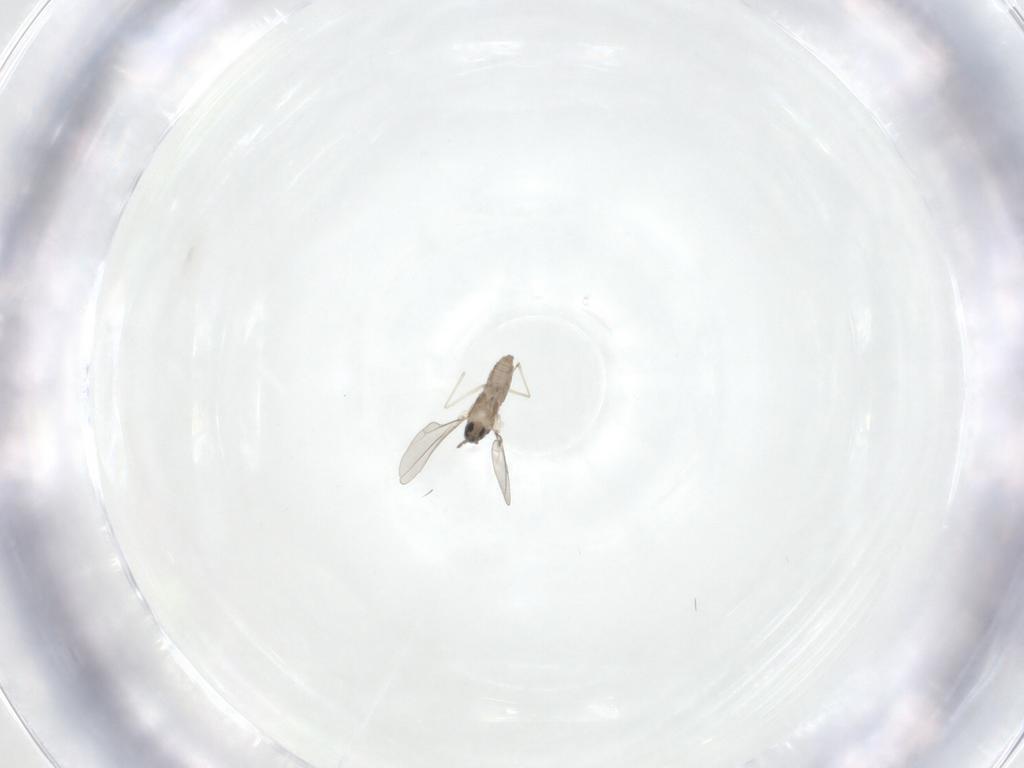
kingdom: Animalia
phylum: Arthropoda
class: Insecta
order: Diptera
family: Cecidomyiidae
